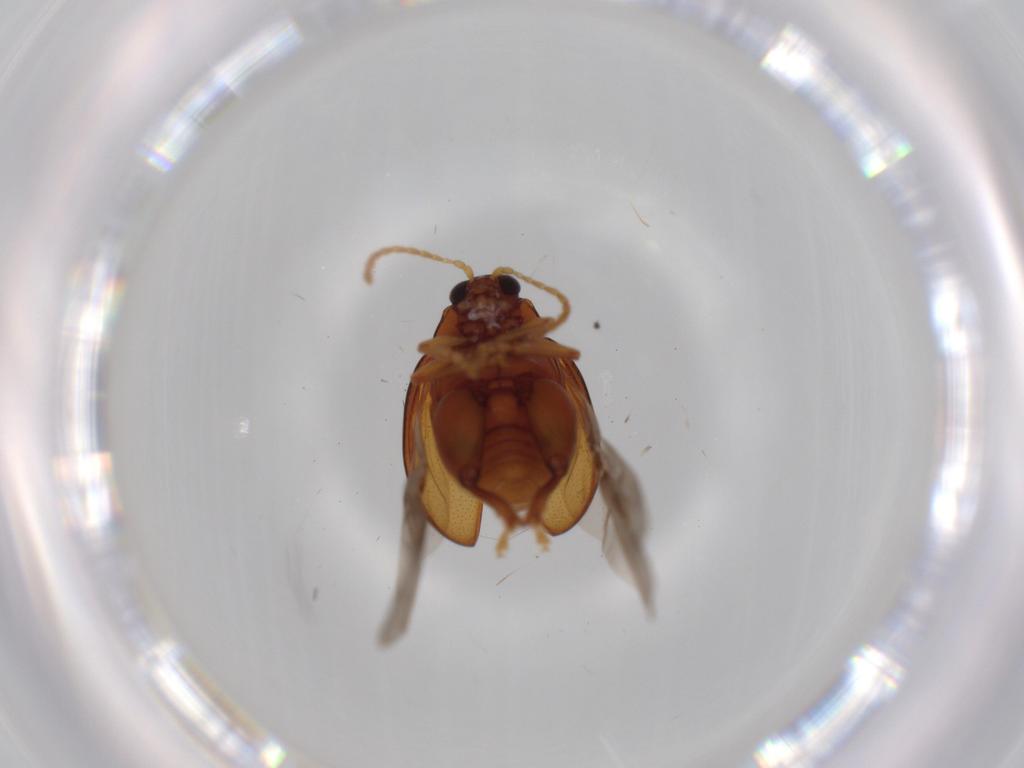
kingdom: Animalia
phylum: Arthropoda
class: Insecta
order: Coleoptera
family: Chrysomelidae
